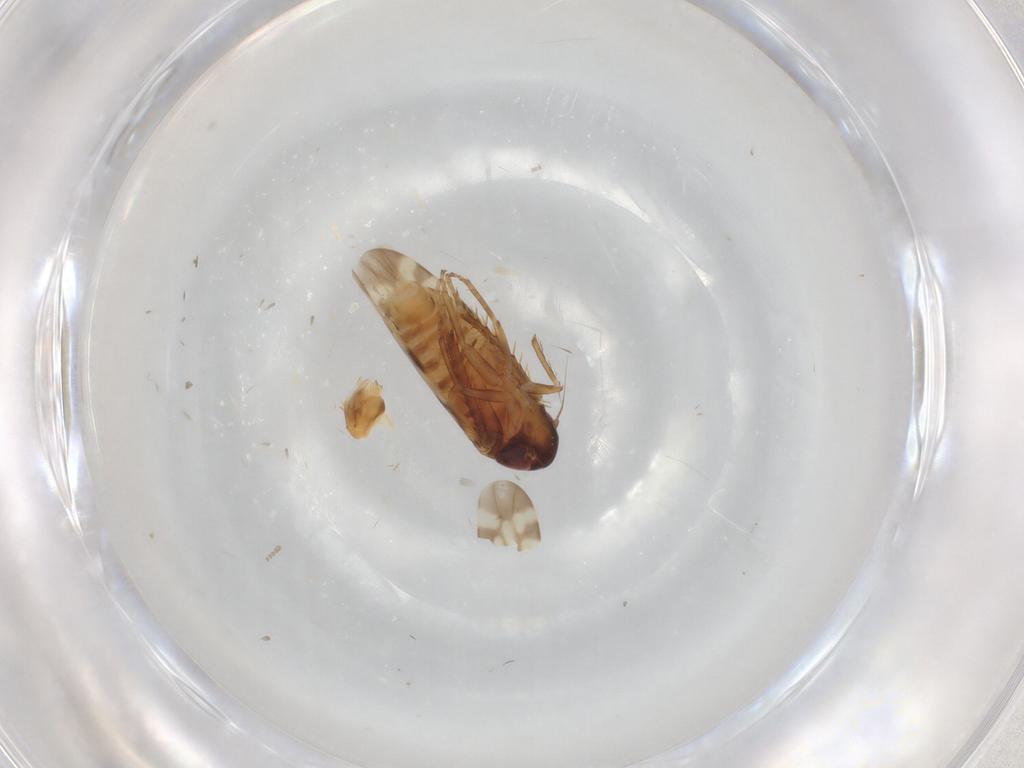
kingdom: Animalia
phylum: Arthropoda
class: Insecta
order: Hemiptera
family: Cicadellidae
